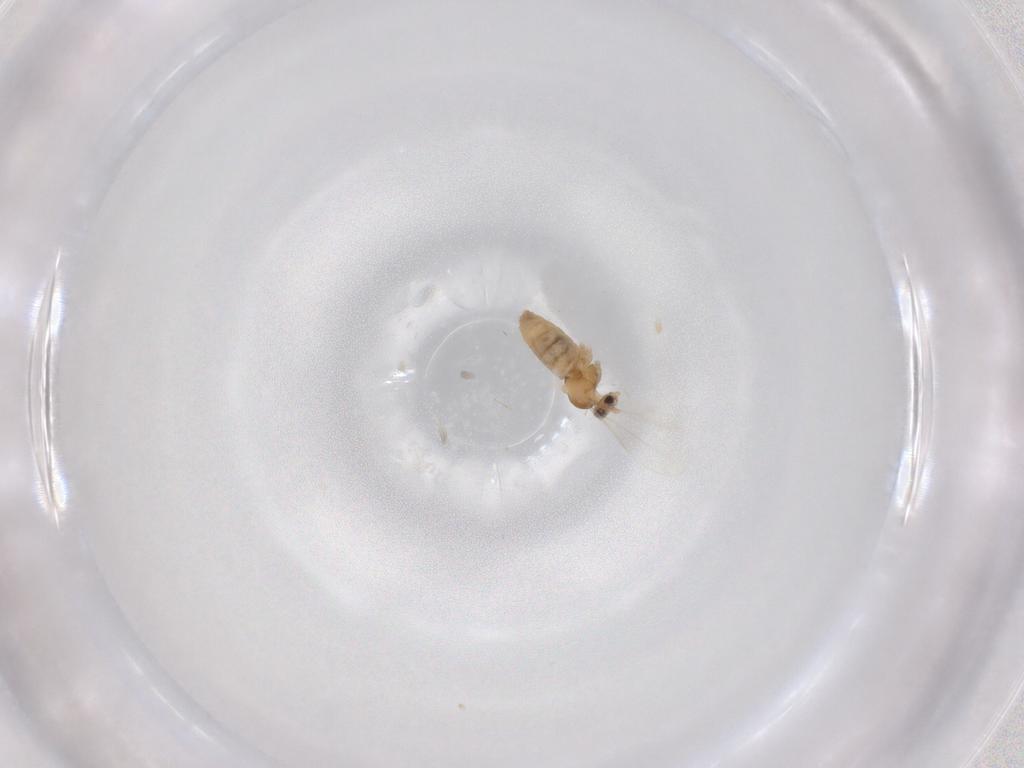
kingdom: Animalia
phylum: Arthropoda
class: Insecta
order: Diptera
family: Cecidomyiidae
